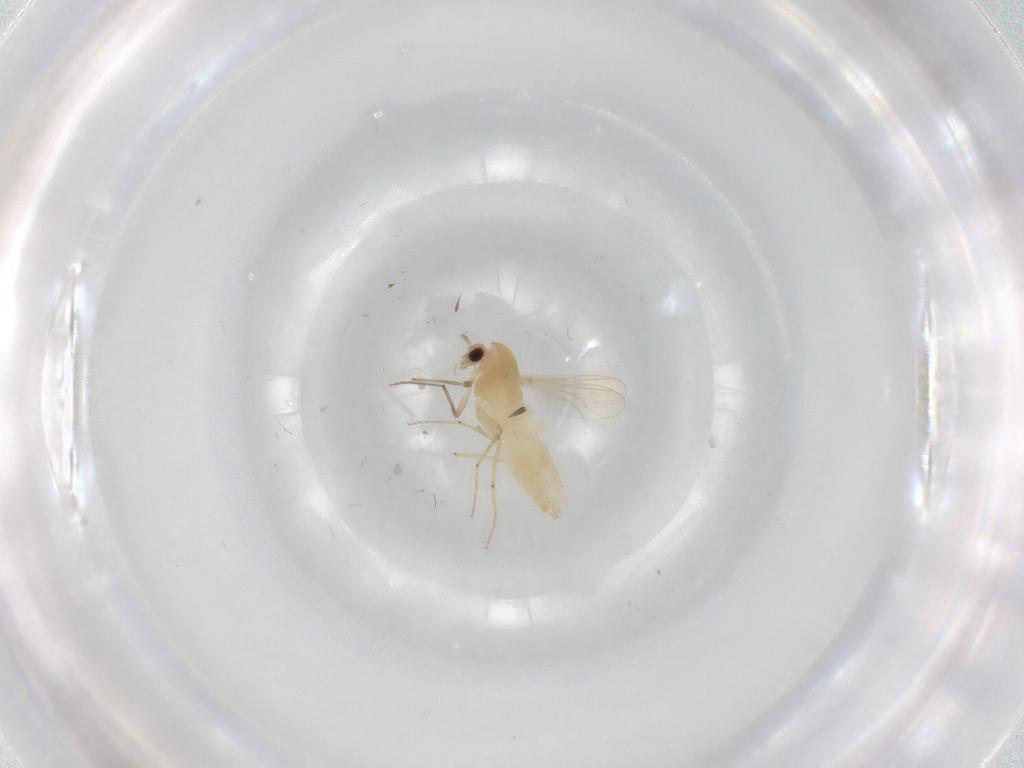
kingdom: Animalia
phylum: Arthropoda
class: Insecta
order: Diptera
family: Chironomidae
